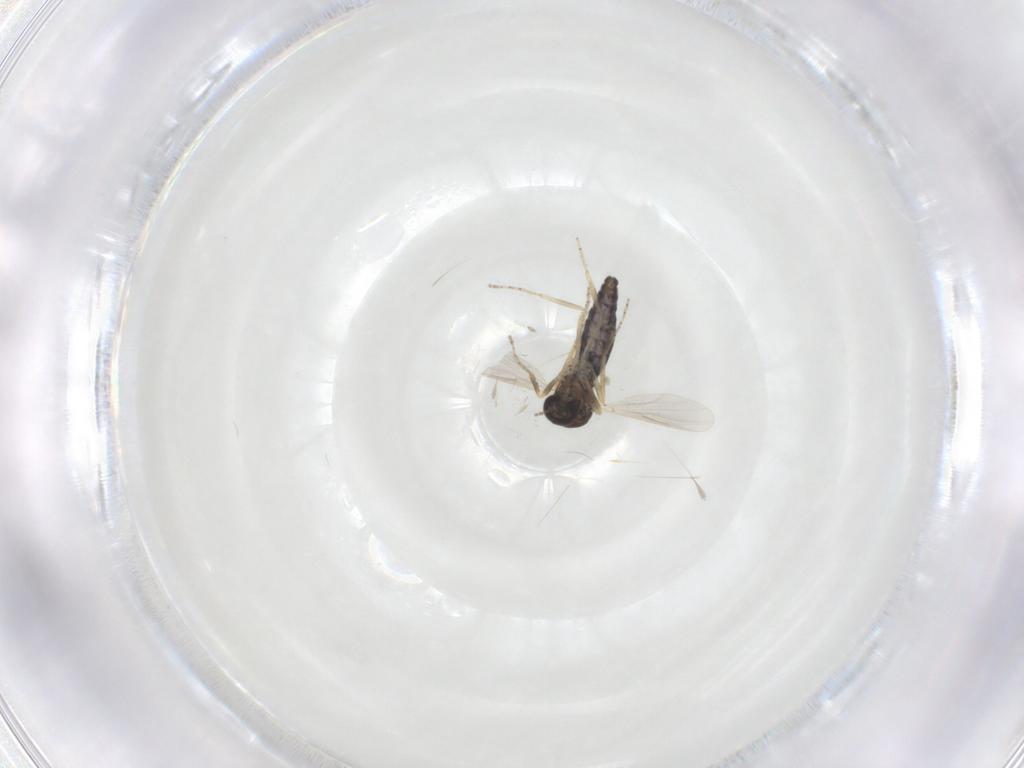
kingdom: Animalia
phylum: Arthropoda
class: Insecta
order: Diptera
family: Ceratopogonidae
